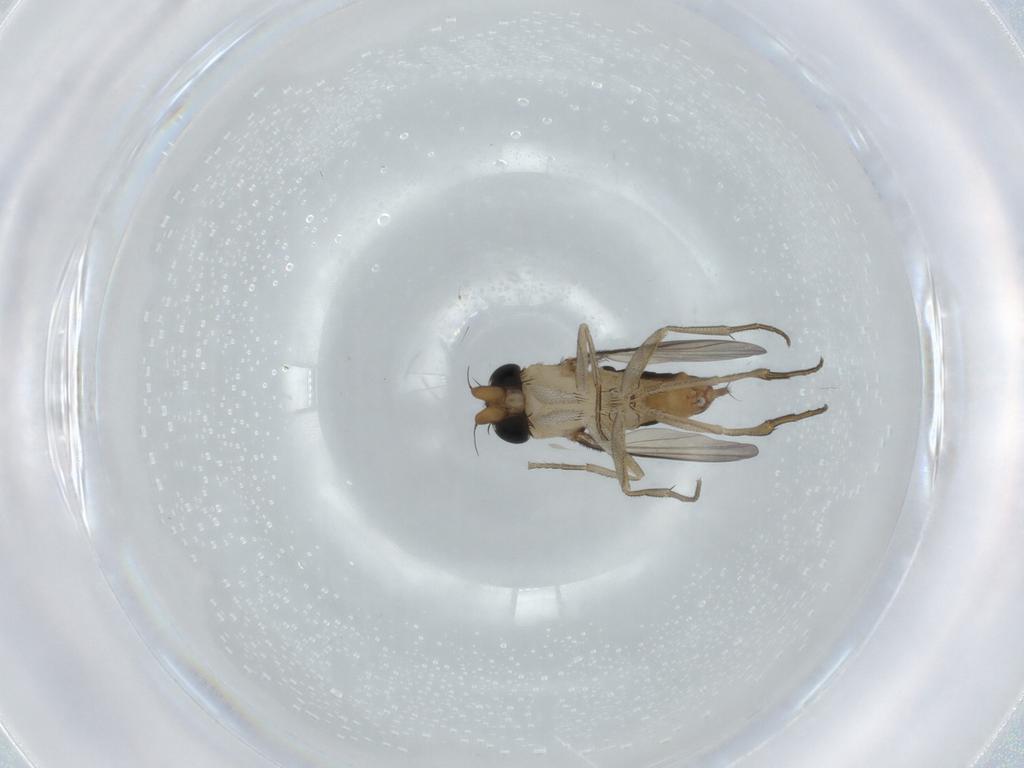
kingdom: Animalia
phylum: Arthropoda
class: Insecta
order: Diptera
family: Phoridae
